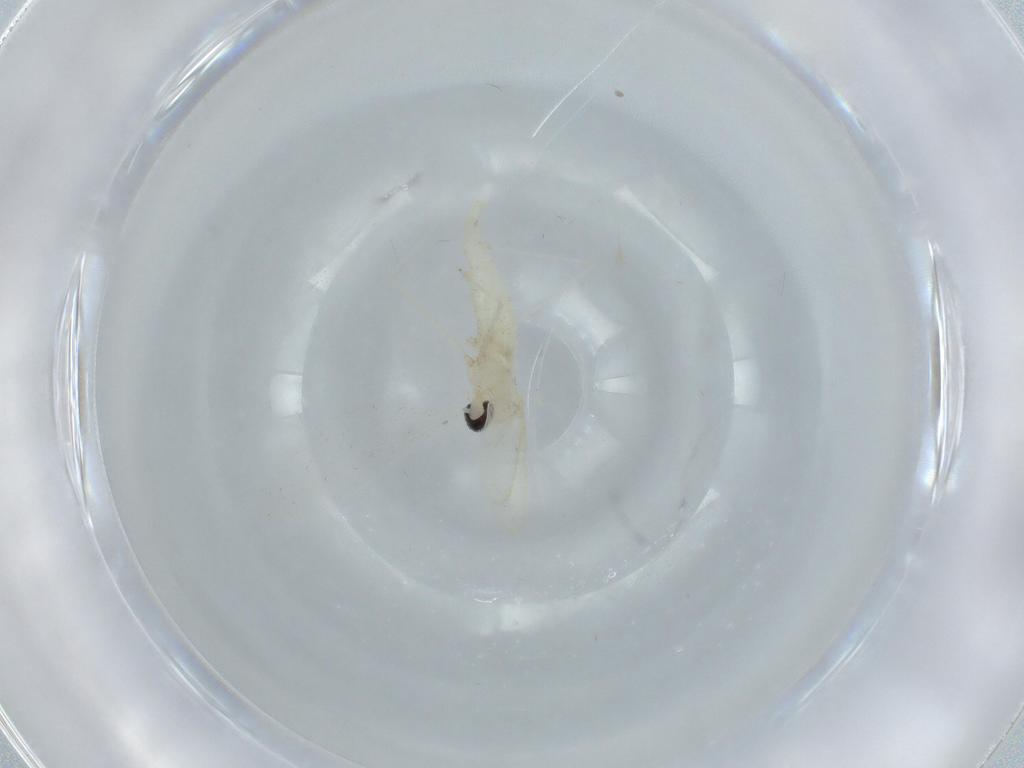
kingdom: Animalia
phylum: Arthropoda
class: Insecta
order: Diptera
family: Cecidomyiidae
